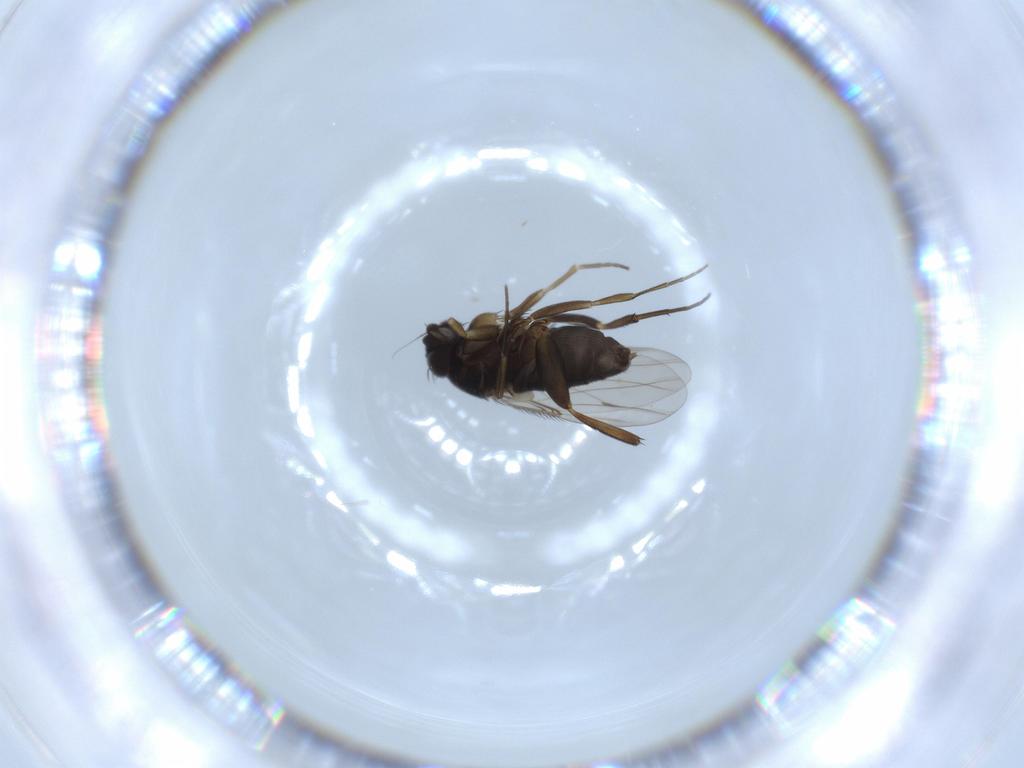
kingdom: Animalia
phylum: Arthropoda
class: Insecta
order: Diptera
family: Phoridae
